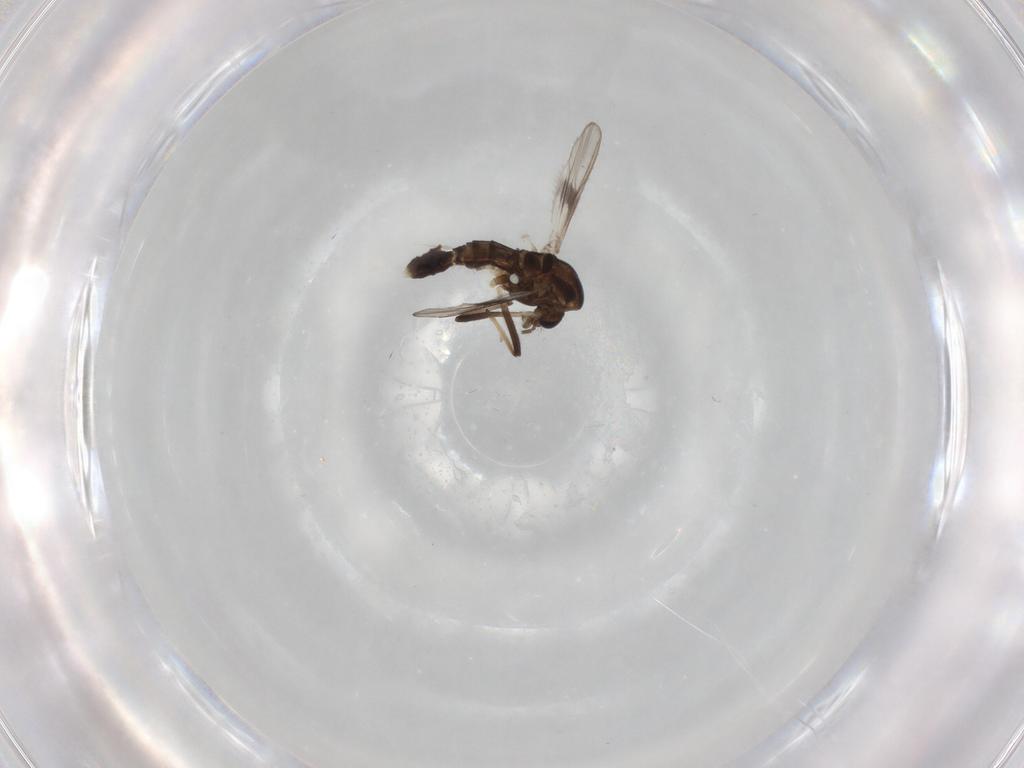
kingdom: Animalia
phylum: Arthropoda
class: Insecta
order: Diptera
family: Chironomidae
